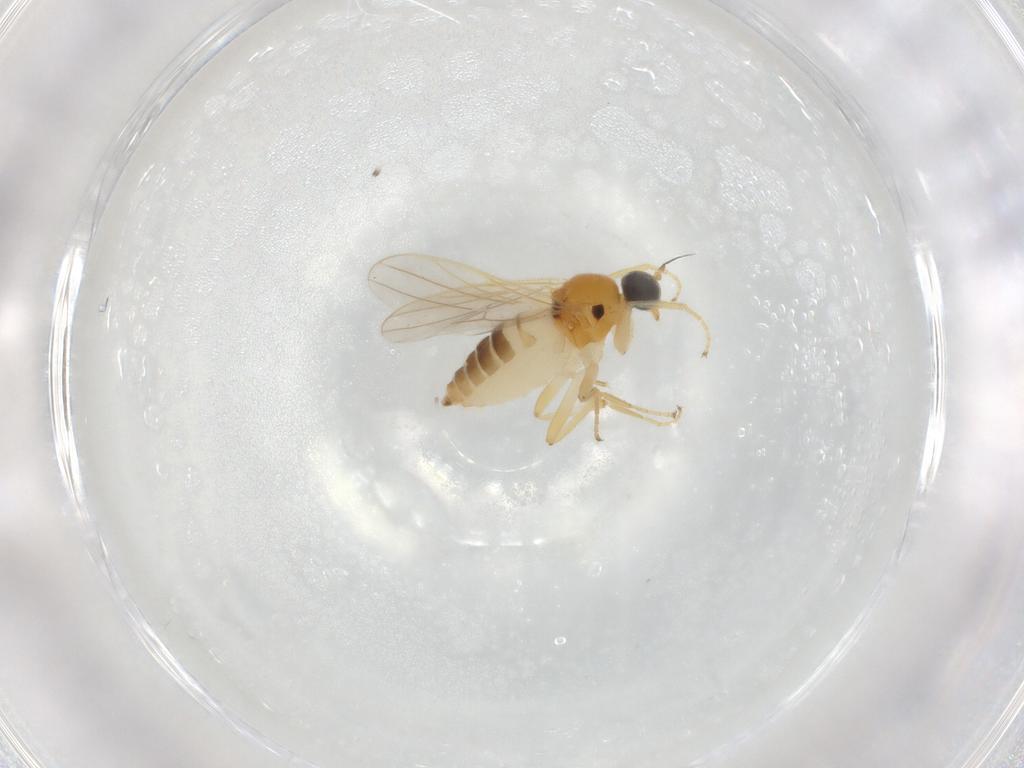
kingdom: Animalia
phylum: Arthropoda
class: Insecta
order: Diptera
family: Hybotidae
